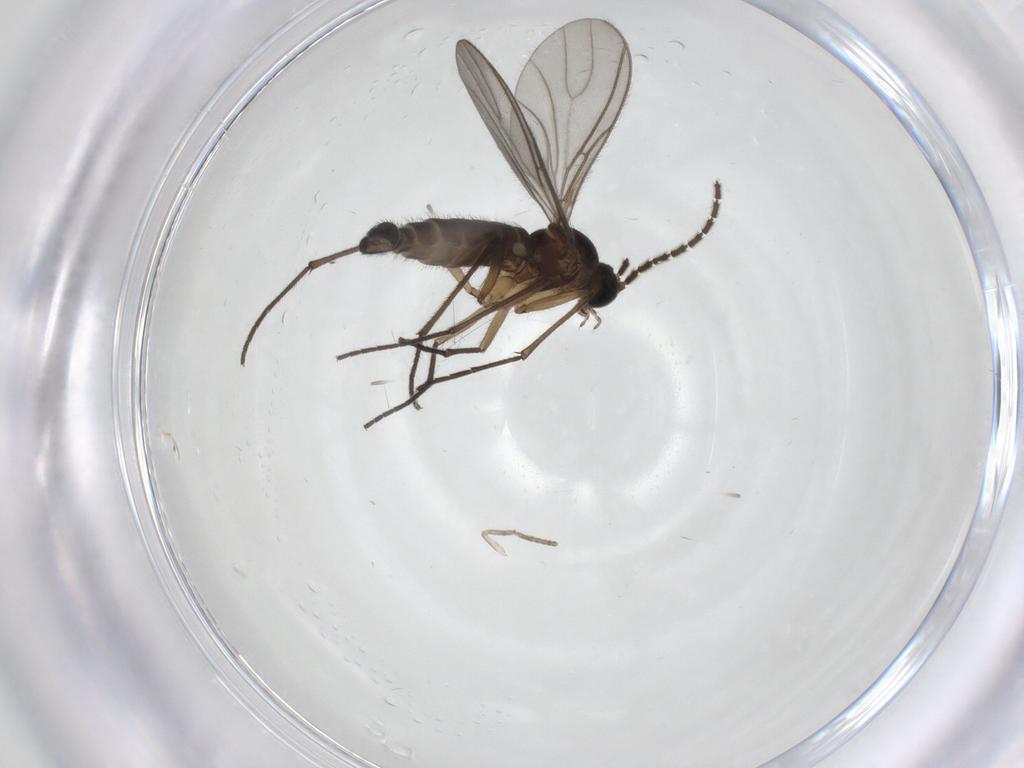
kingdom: Animalia
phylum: Arthropoda
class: Insecta
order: Diptera
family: Sciaridae
